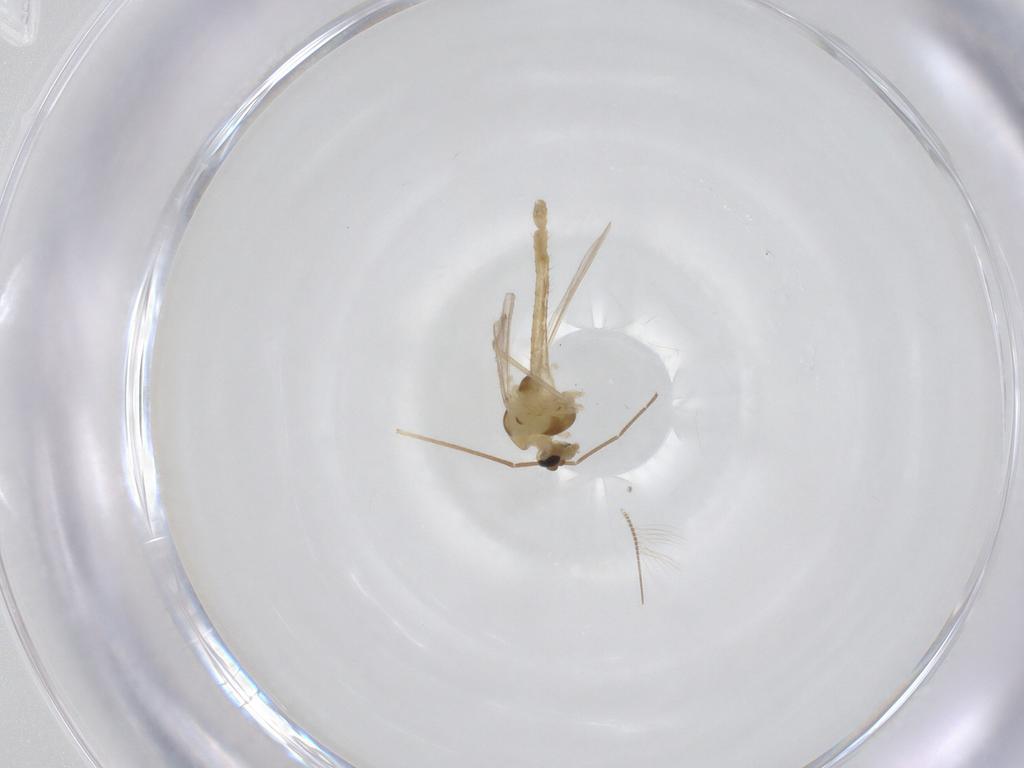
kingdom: Animalia
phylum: Arthropoda
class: Insecta
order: Diptera
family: Chironomidae
